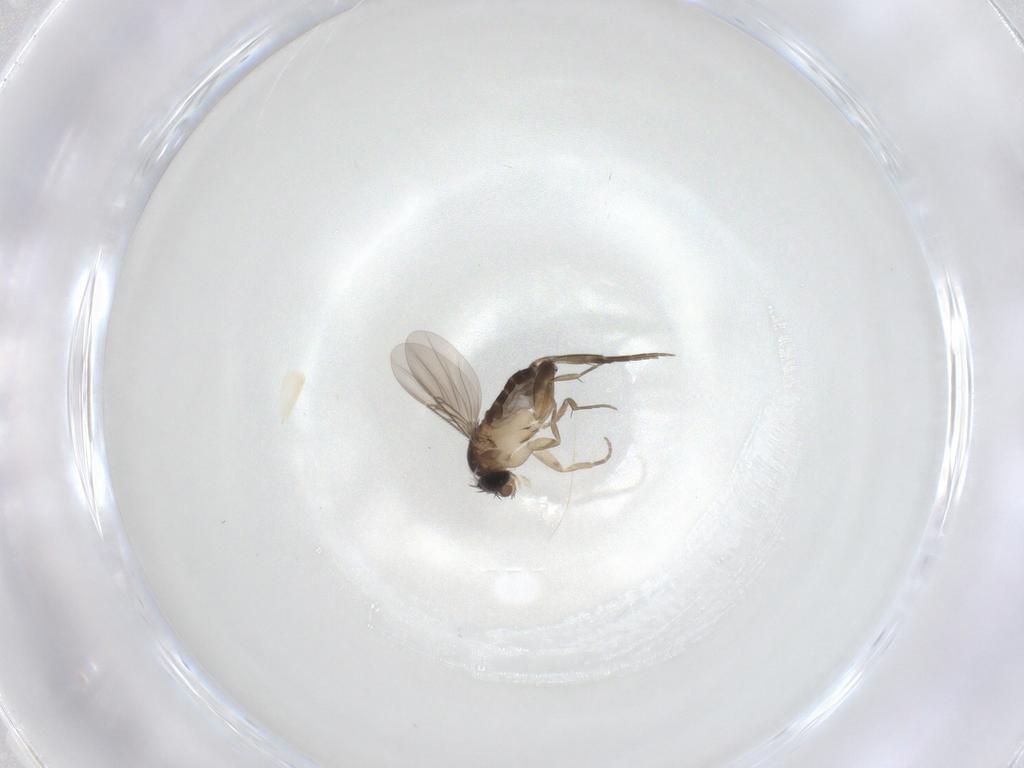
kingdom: Animalia
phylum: Arthropoda
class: Insecta
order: Diptera
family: Phoridae
